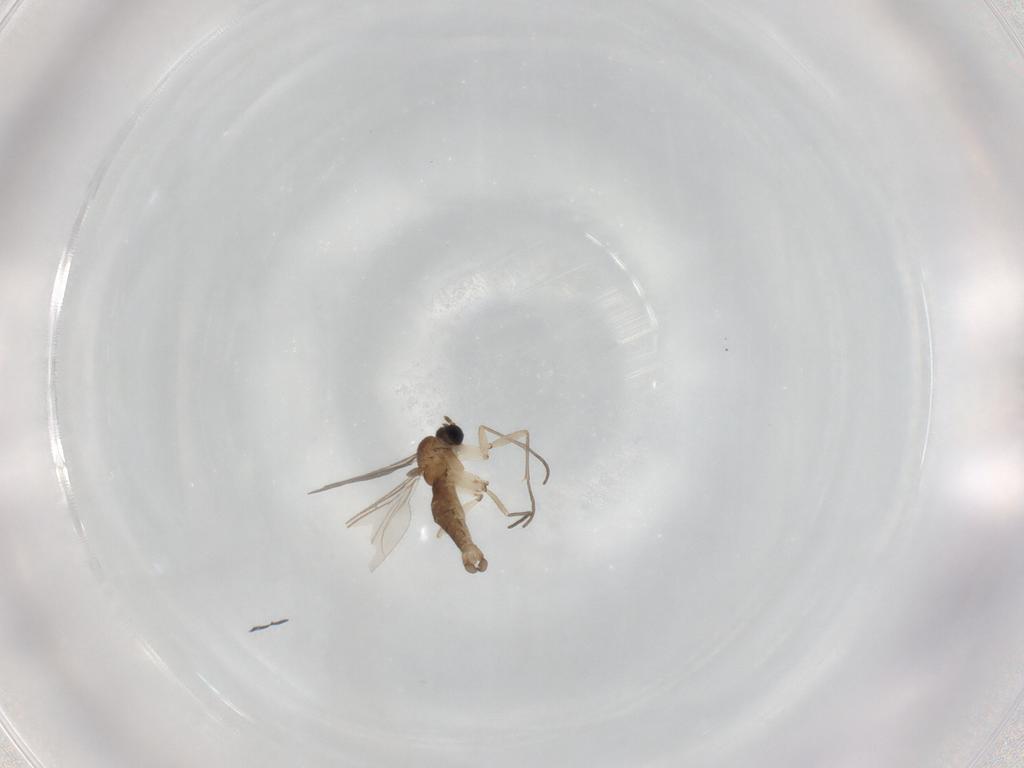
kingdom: Animalia
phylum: Arthropoda
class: Insecta
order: Diptera
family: Sciaridae
